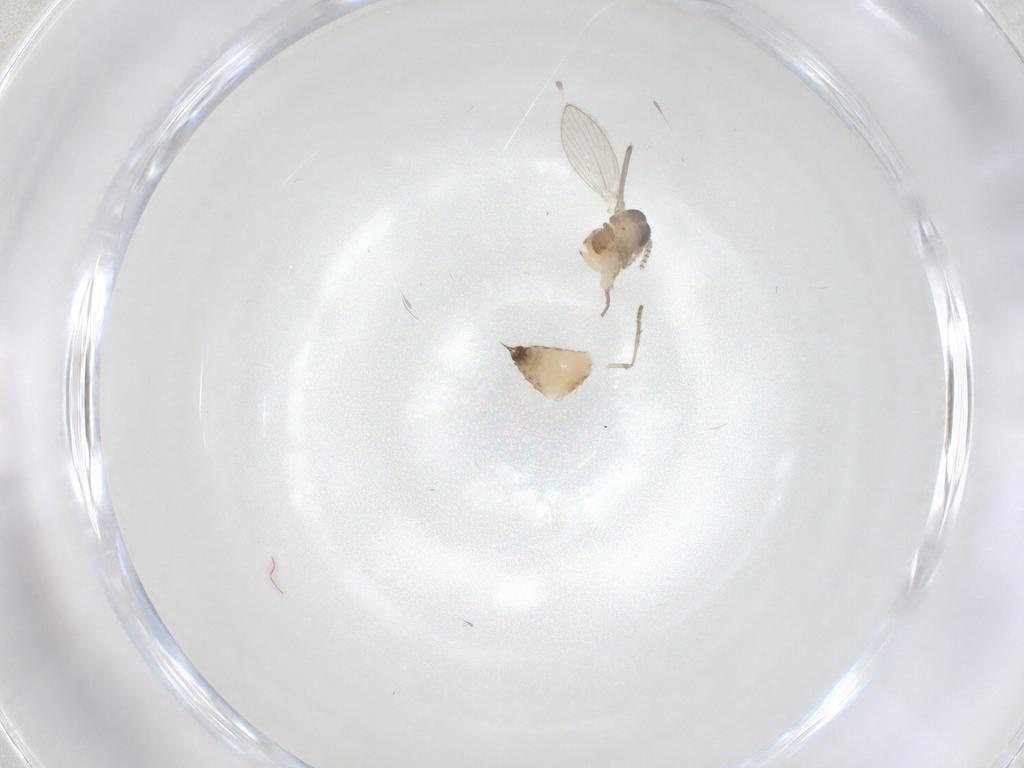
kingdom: Animalia
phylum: Arthropoda
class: Insecta
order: Diptera
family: Psychodidae
